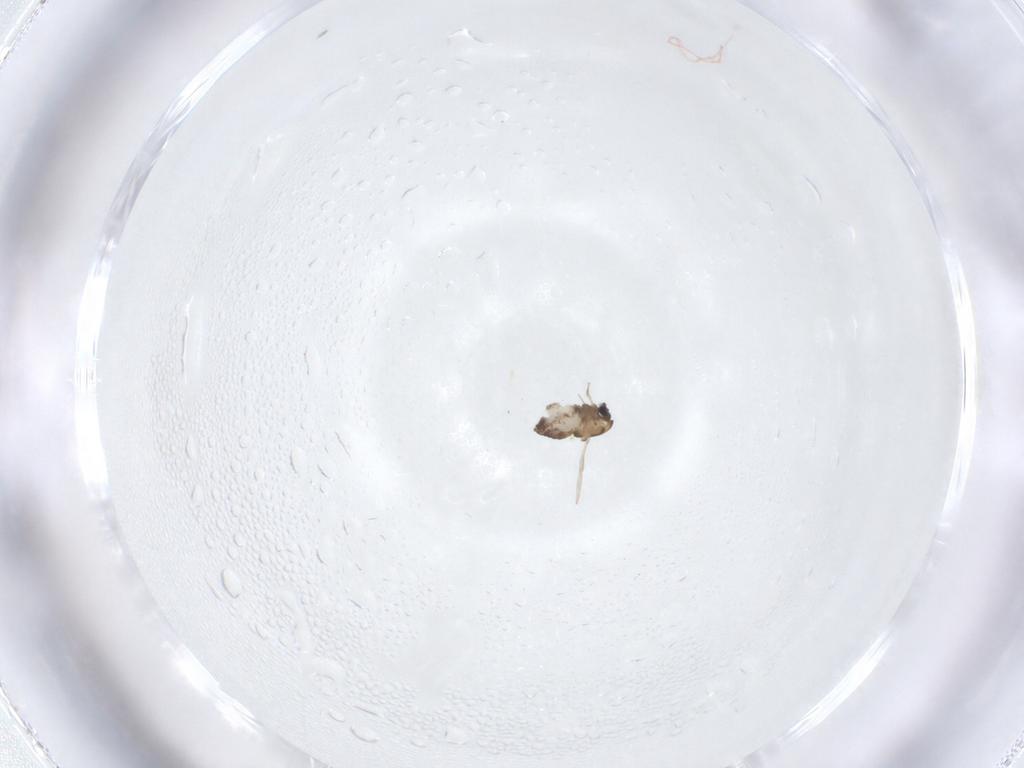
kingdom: Animalia
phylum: Arthropoda
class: Insecta
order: Diptera
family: Chironomidae
